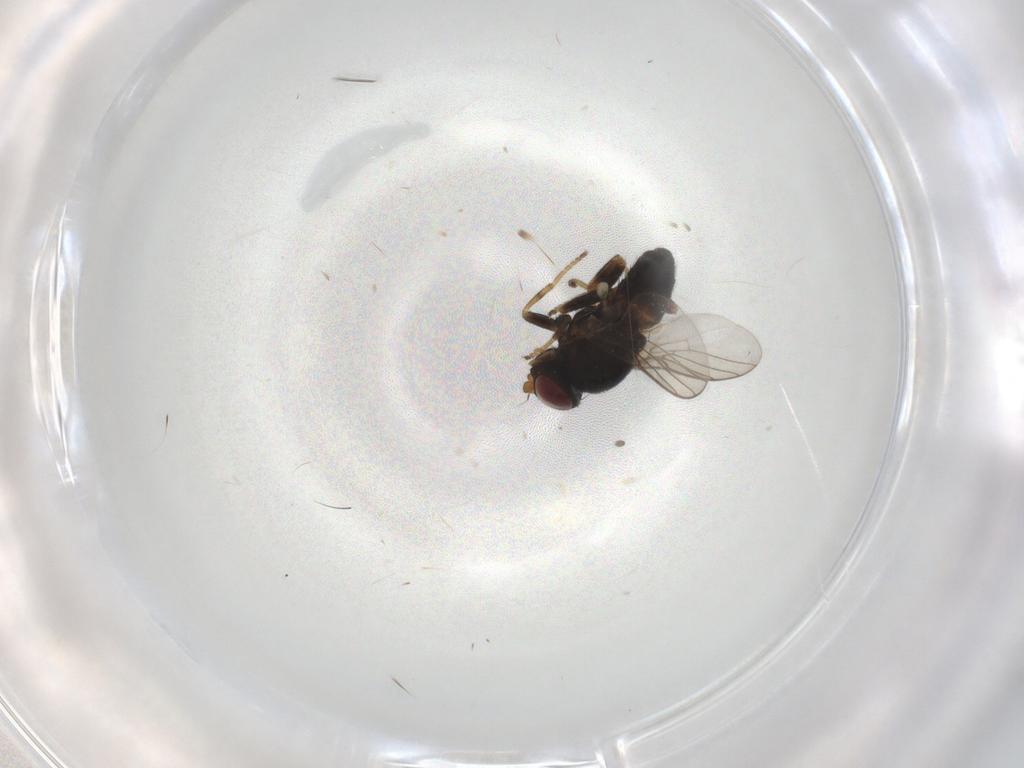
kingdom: Animalia
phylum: Arthropoda
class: Insecta
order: Diptera
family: Chloropidae
